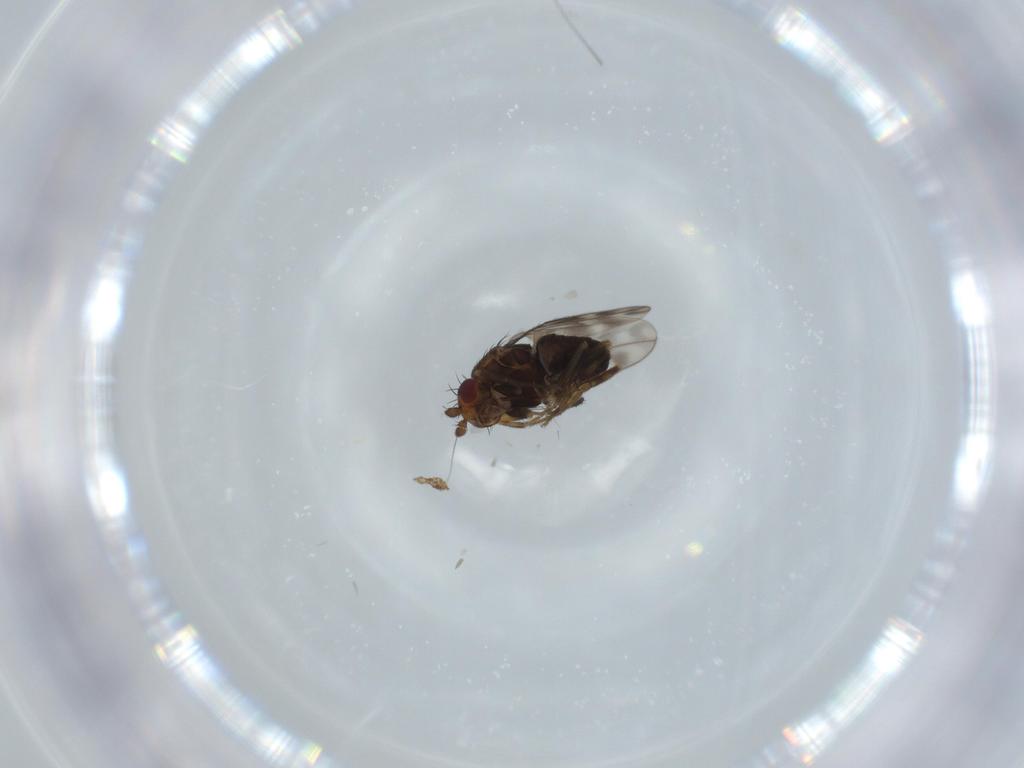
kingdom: Animalia
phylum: Arthropoda
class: Insecta
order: Diptera
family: Sphaeroceridae
